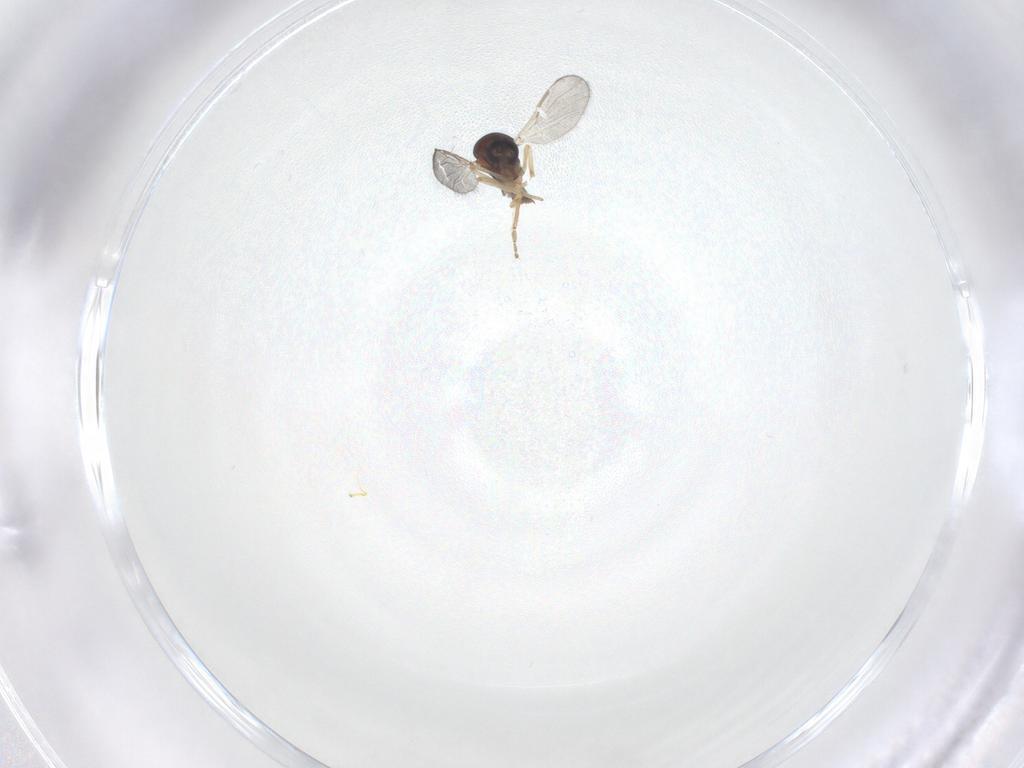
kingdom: Animalia
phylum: Arthropoda
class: Insecta
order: Diptera
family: Ceratopogonidae
